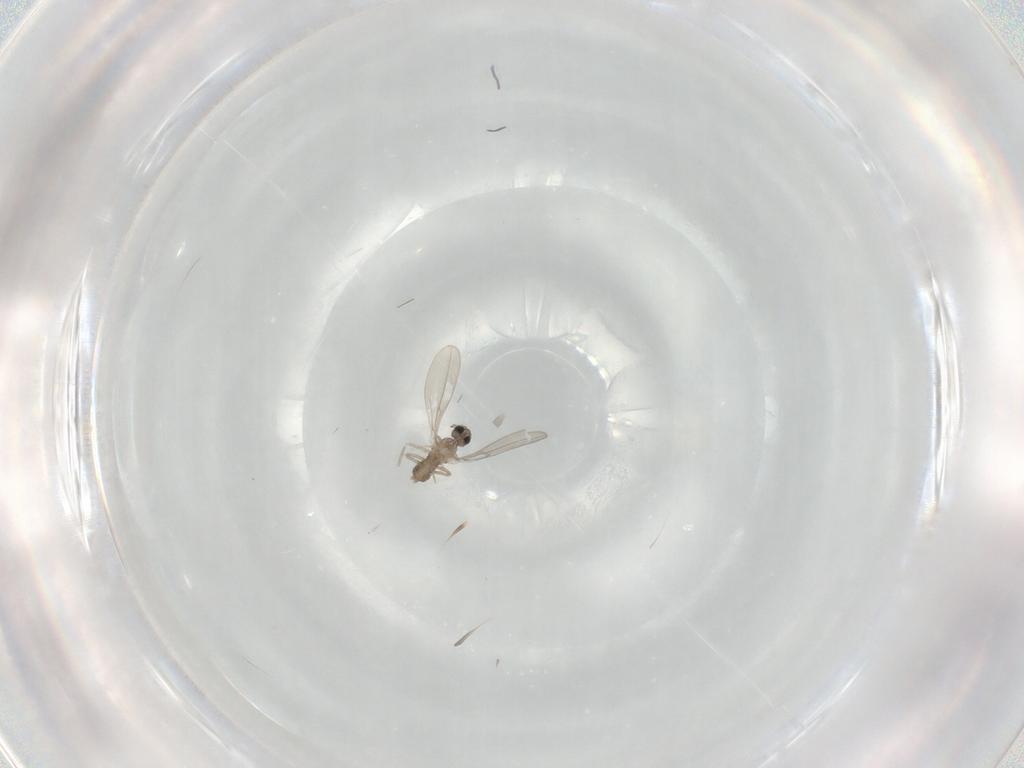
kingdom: Animalia
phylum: Arthropoda
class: Insecta
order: Diptera
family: Cecidomyiidae
